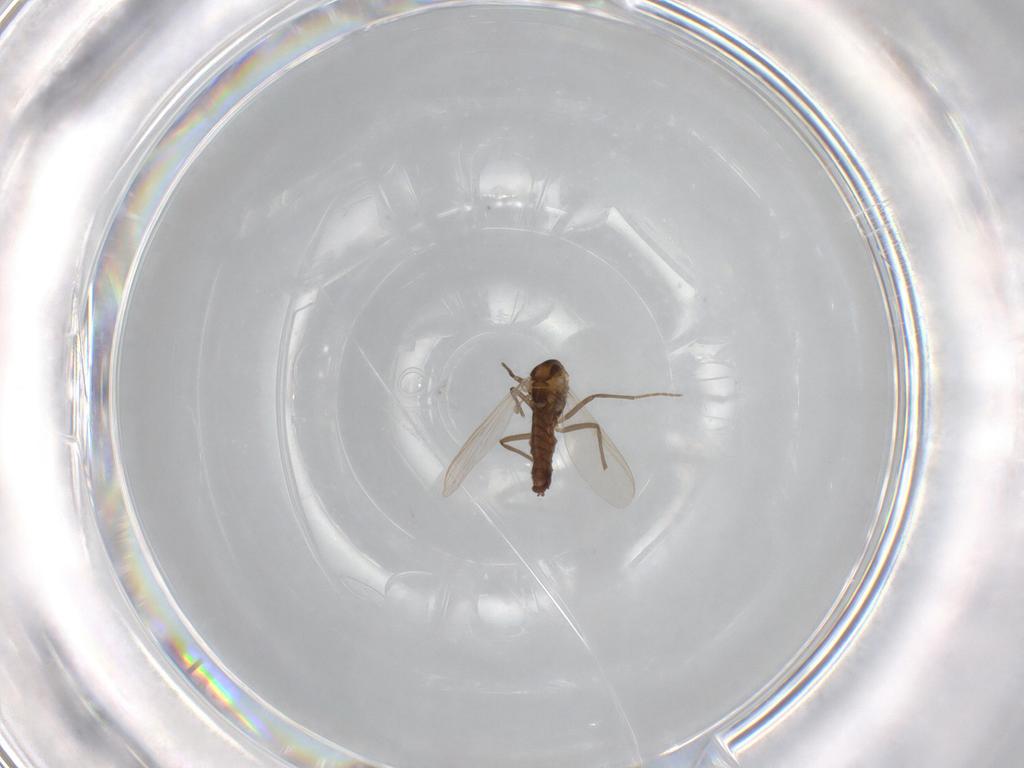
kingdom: Animalia
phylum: Arthropoda
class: Insecta
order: Diptera
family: Chironomidae
